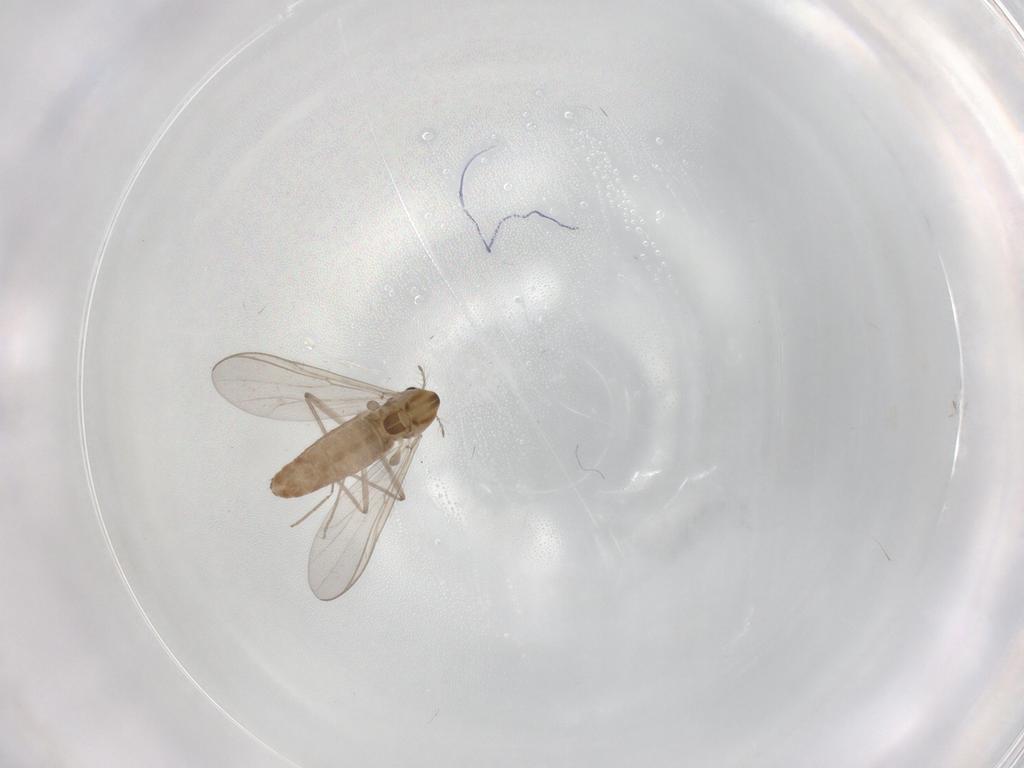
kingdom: Animalia
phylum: Arthropoda
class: Insecta
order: Diptera
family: Chironomidae
